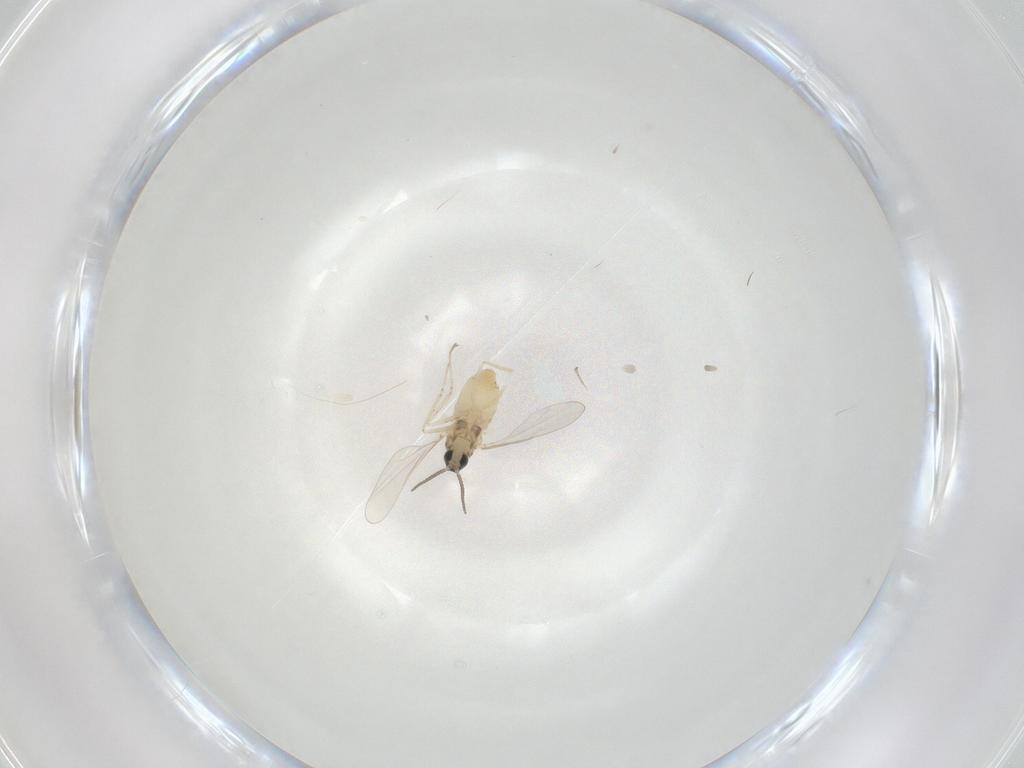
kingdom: Animalia
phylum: Arthropoda
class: Insecta
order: Diptera
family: Cecidomyiidae
